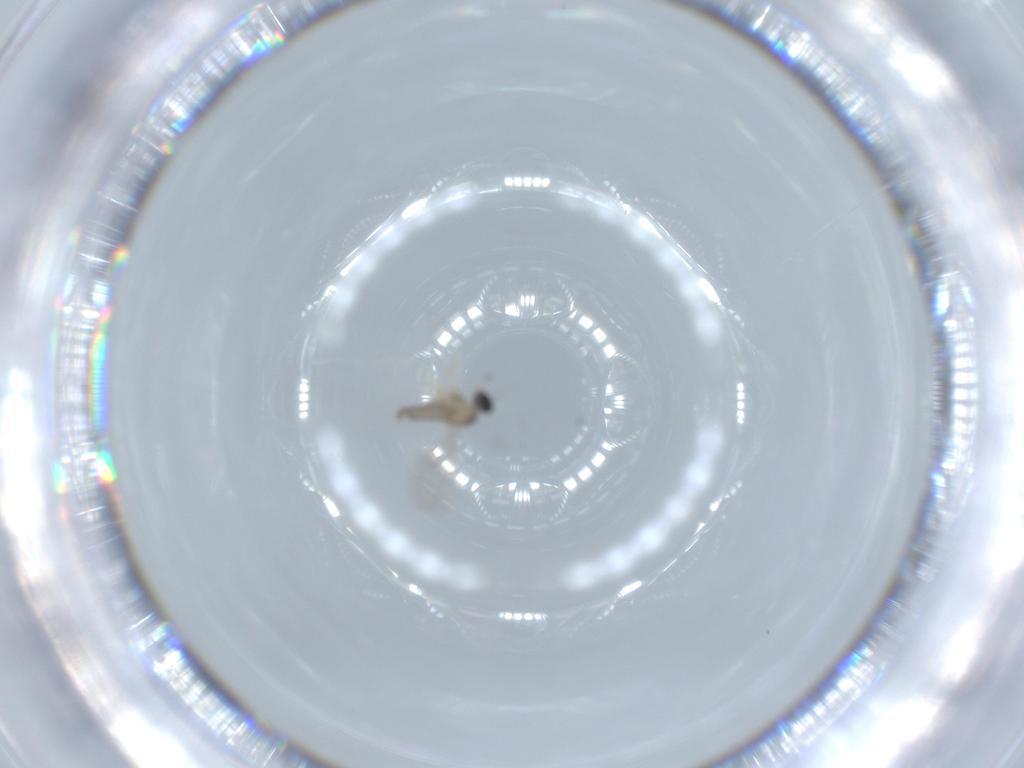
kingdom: Animalia
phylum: Arthropoda
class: Insecta
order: Diptera
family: Cecidomyiidae
